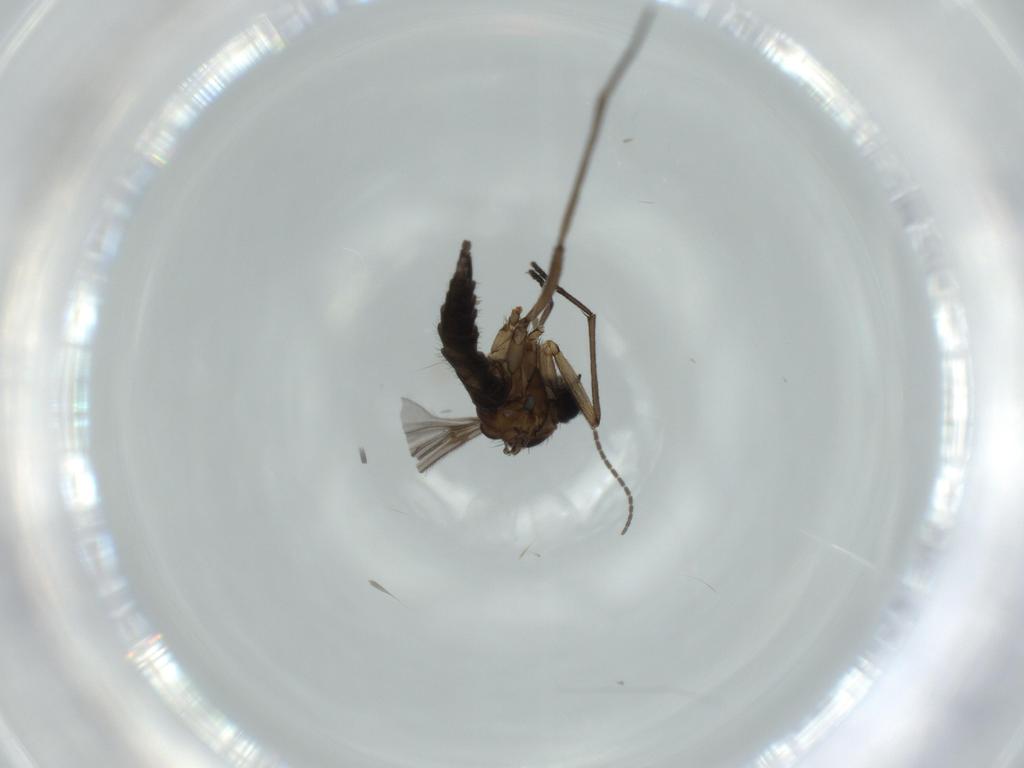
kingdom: Animalia
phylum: Arthropoda
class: Insecta
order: Diptera
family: Sciaridae
